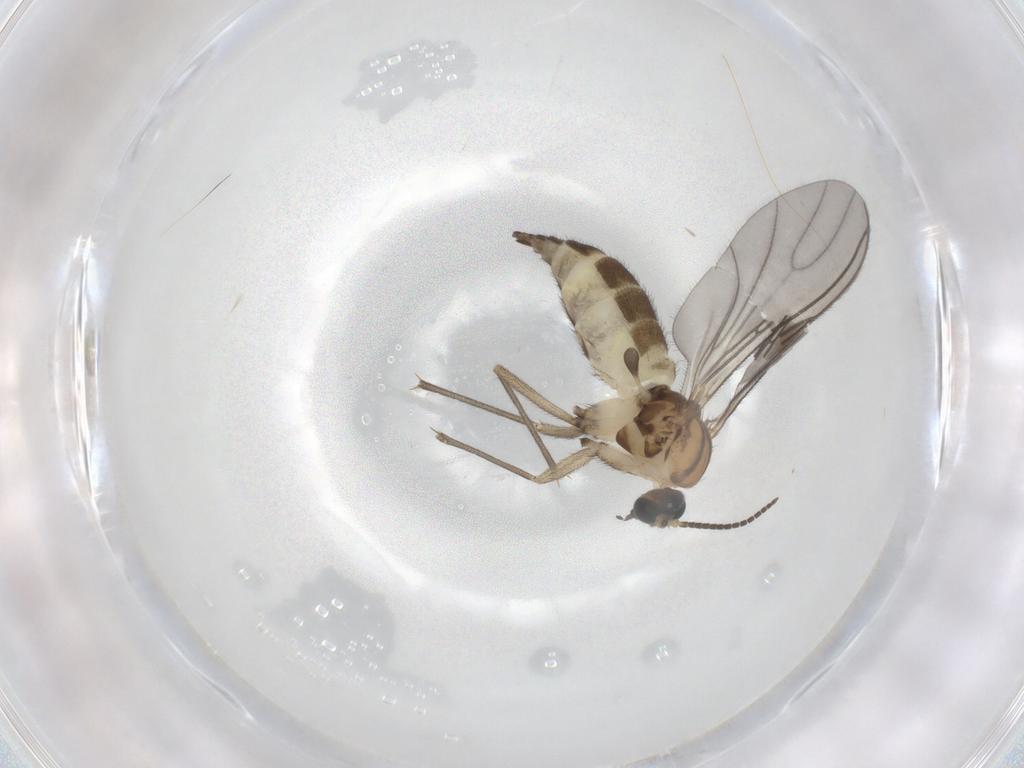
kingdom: Animalia
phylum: Arthropoda
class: Insecta
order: Diptera
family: Sciaridae
